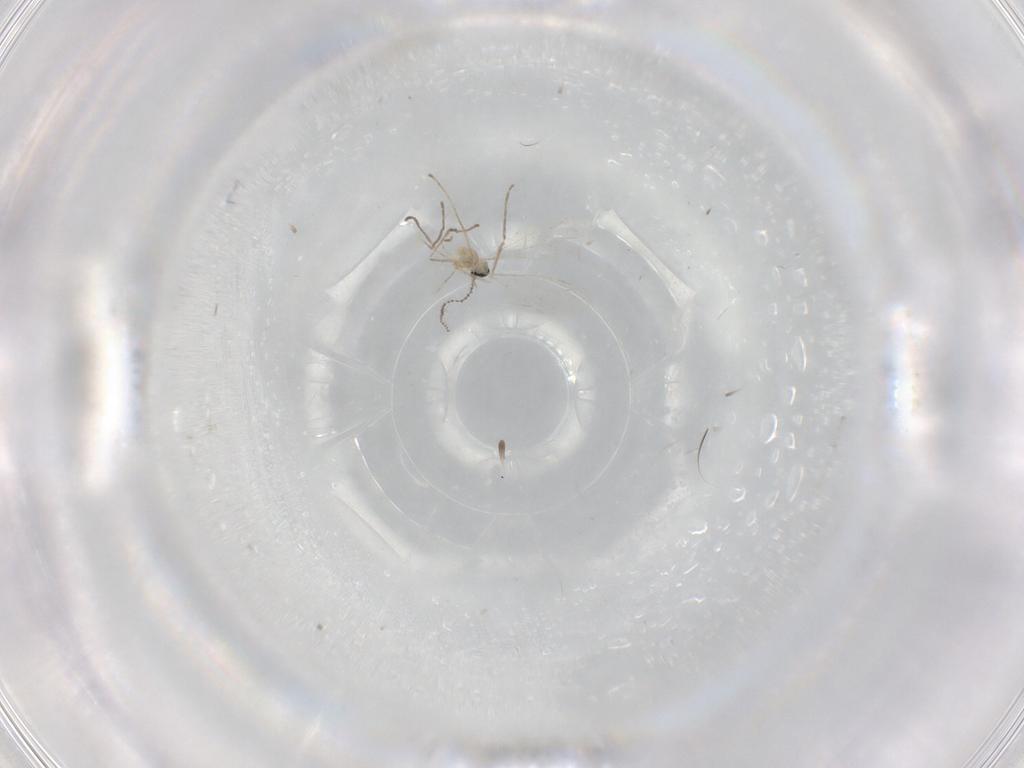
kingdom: Animalia
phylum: Arthropoda
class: Insecta
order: Diptera
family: Cecidomyiidae
